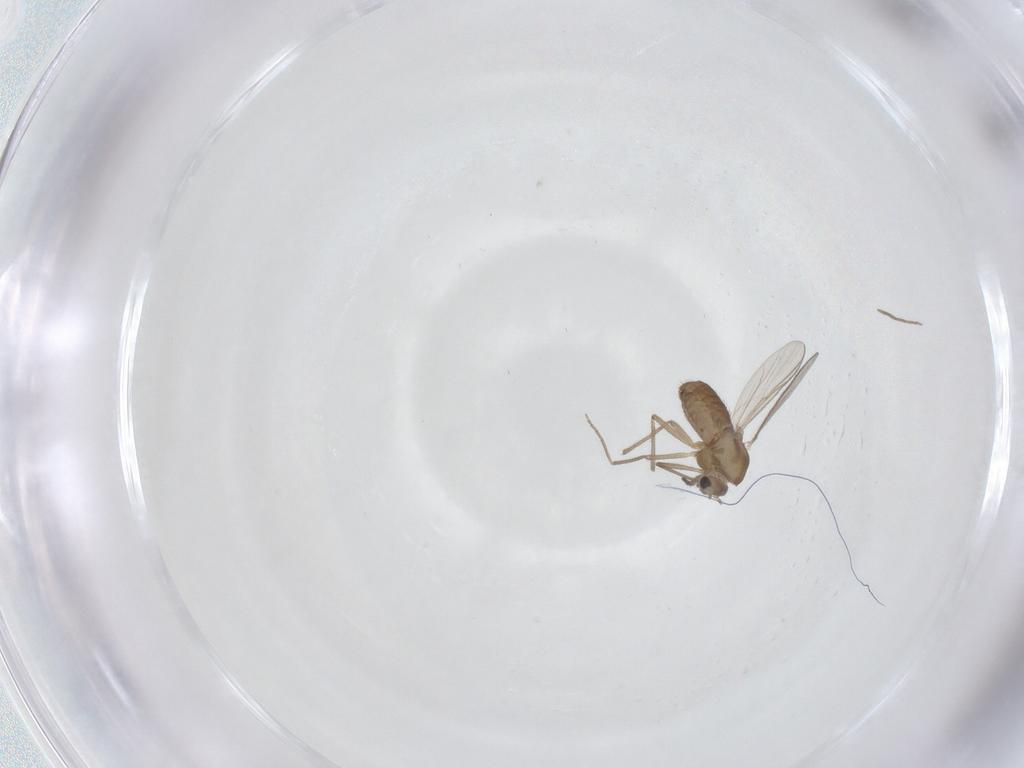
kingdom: Animalia
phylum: Arthropoda
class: Insecta
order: Diptera
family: Chironomidae
